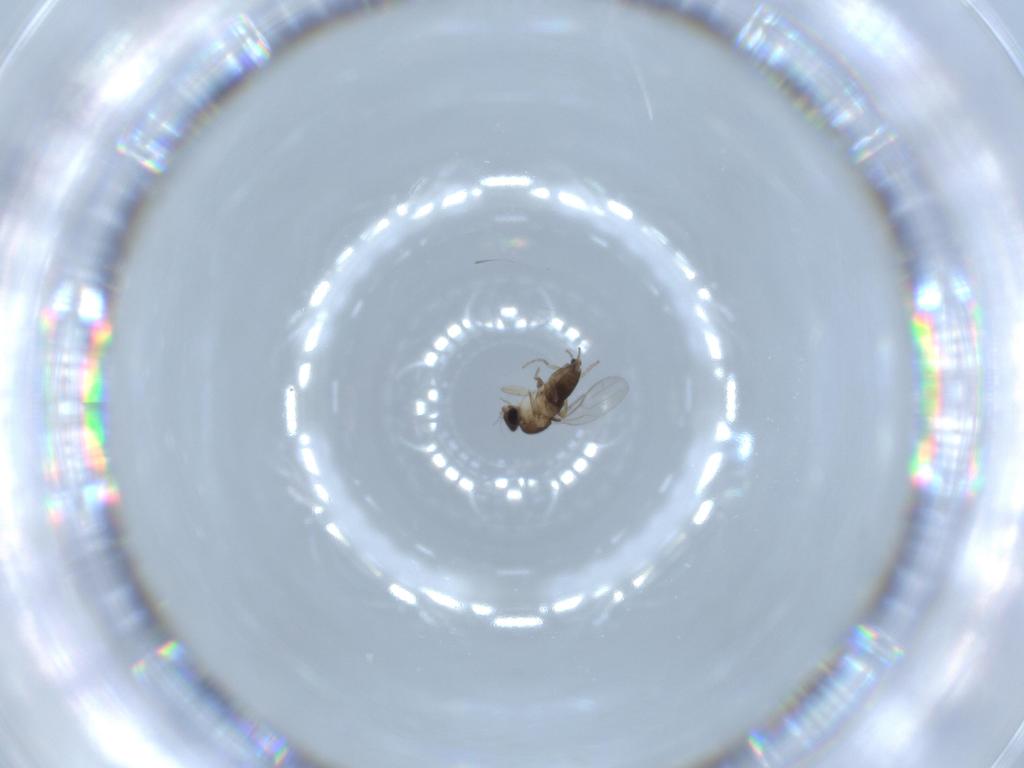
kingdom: Animalia
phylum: Arthropoda
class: Insecta
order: Diptera
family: Phoridae
